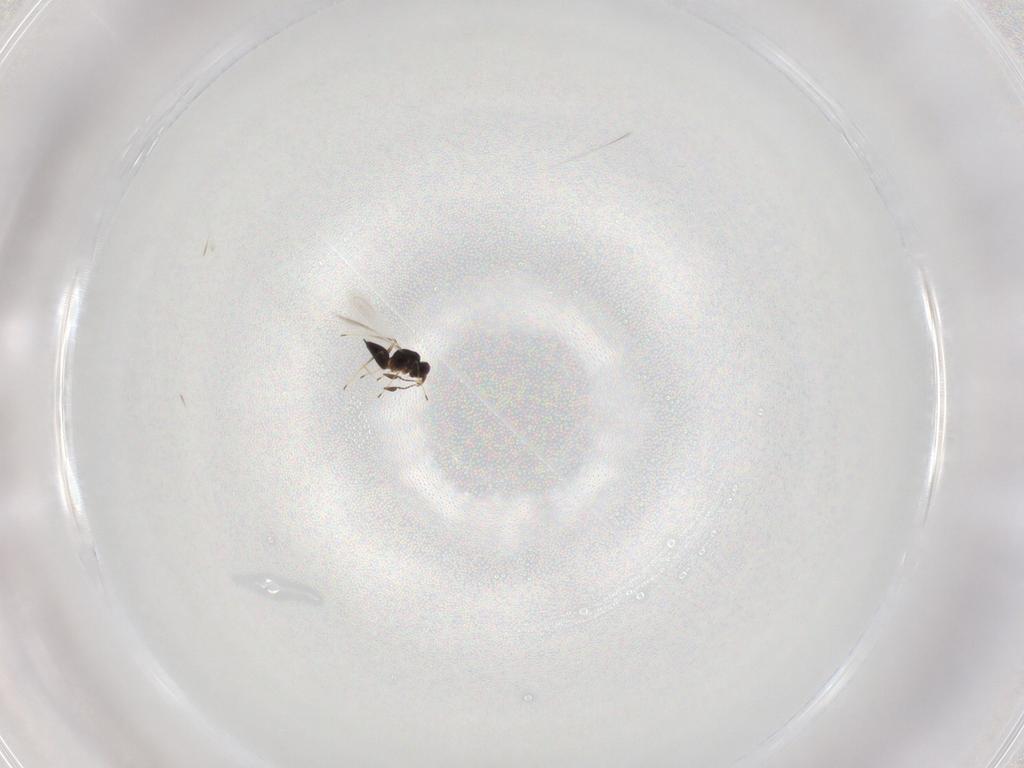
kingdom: Animalia
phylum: Arthropoda
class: Insecta
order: Hymenoptera
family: Mymaridae
